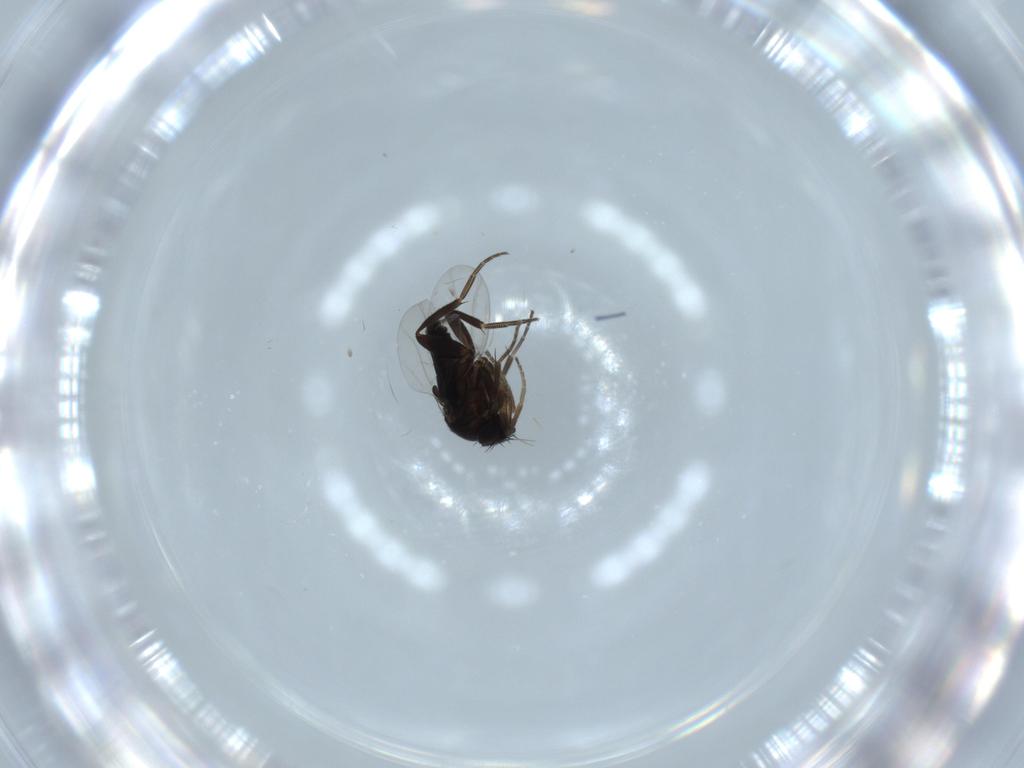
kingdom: Animalia
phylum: Arthropoda
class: Insecta
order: Diptera
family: Phoridae
